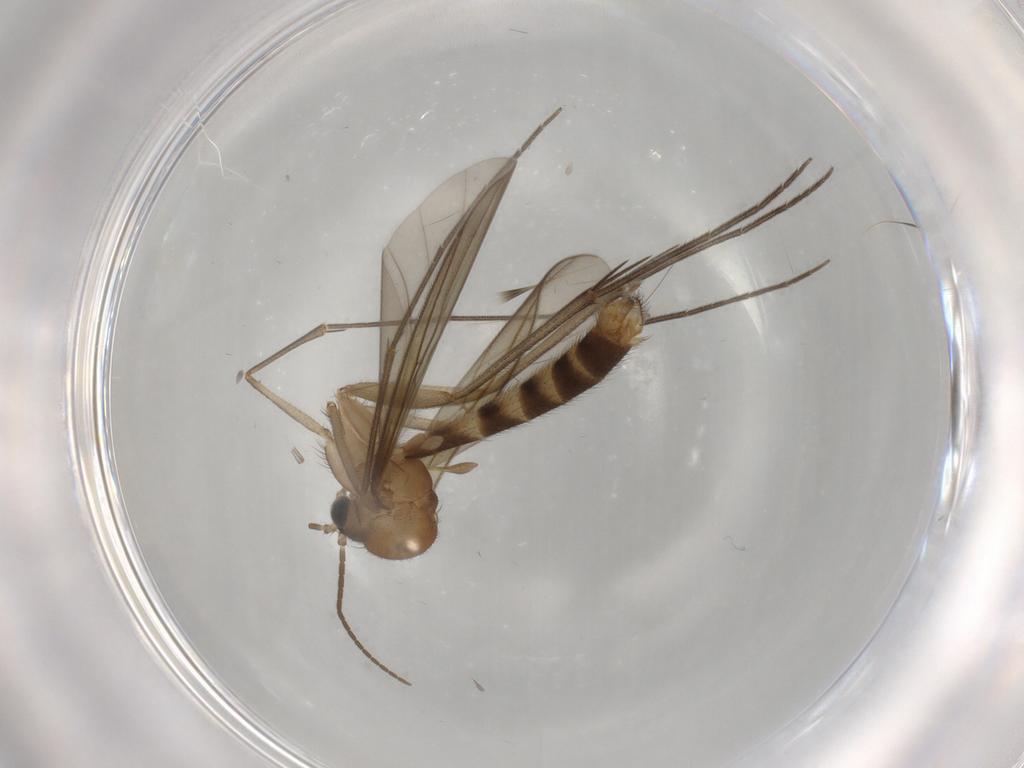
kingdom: Animalia
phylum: Arthropoda
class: Insecta
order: Diptera
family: Mycetophilidae
